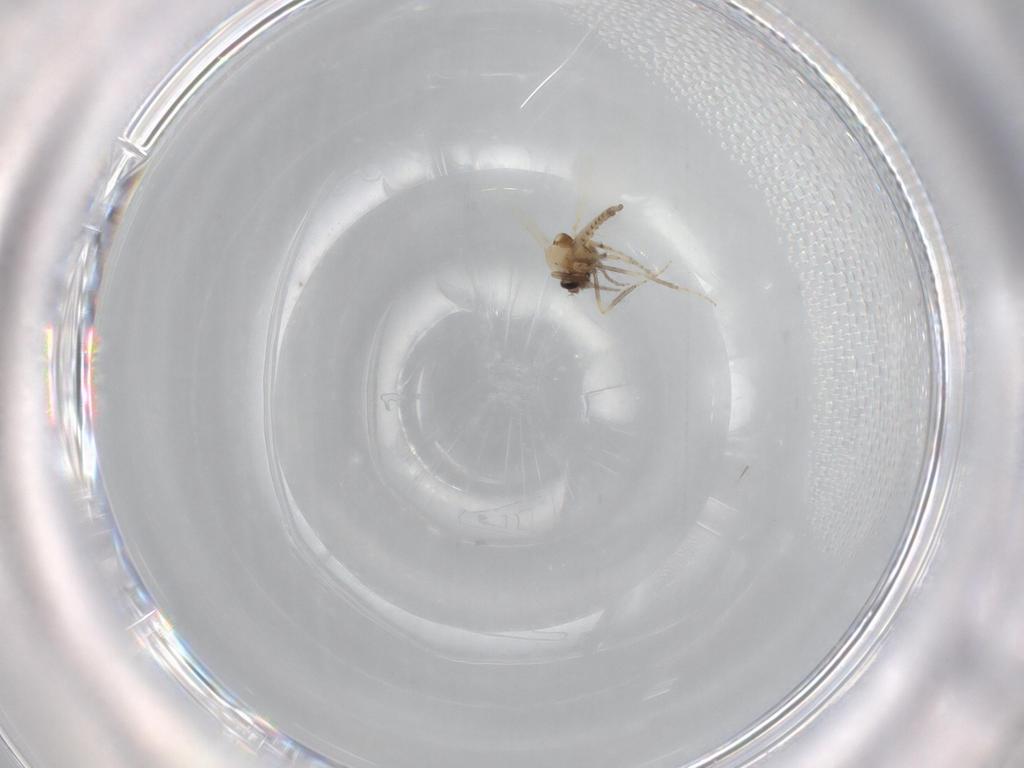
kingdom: Animalia
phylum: Arthropoda
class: Insecta
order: Diptera
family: Ceratopogonidae
